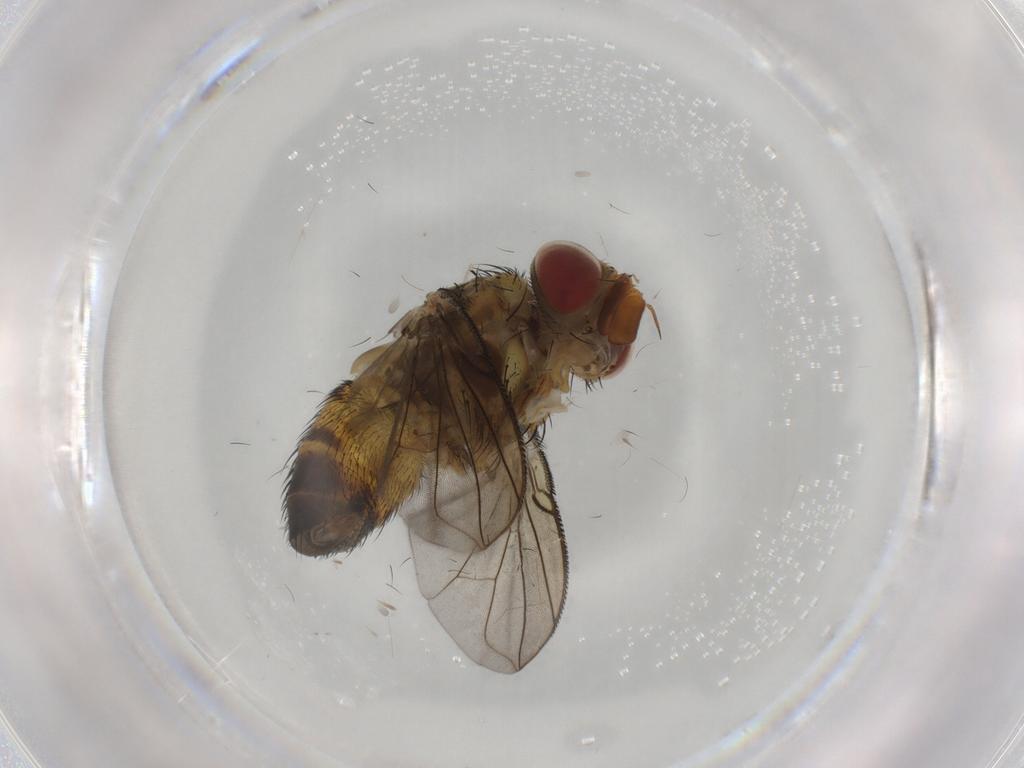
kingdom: Animalia
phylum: Arthropoda
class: Insecta
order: Diptera
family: Tachinidae
